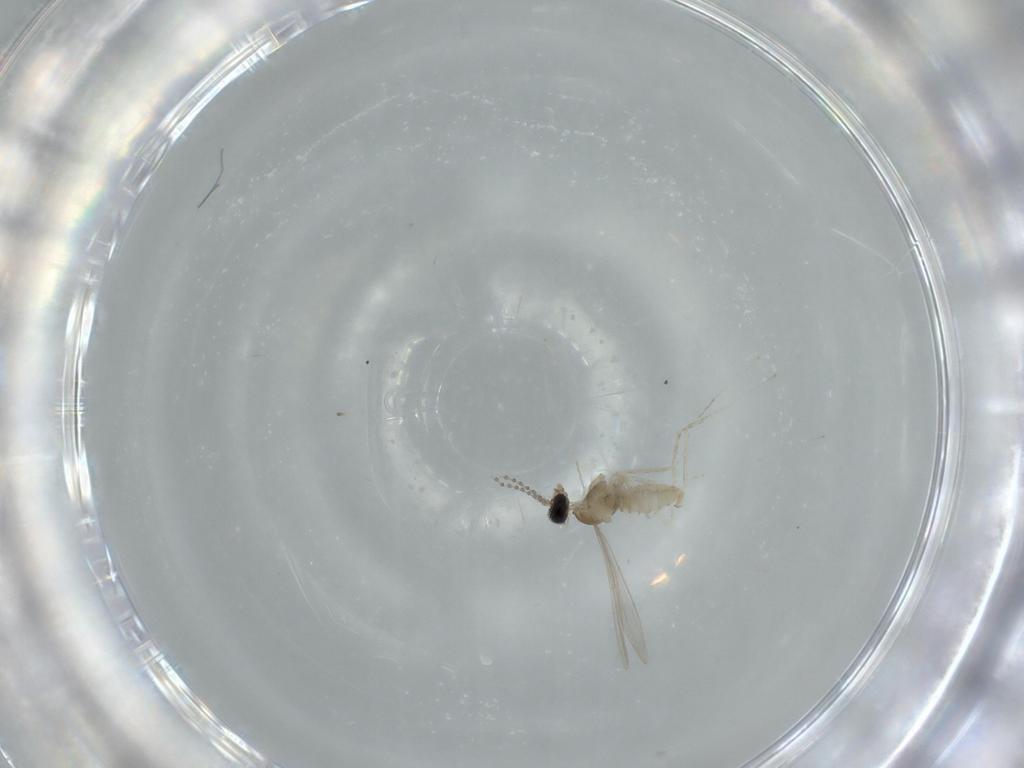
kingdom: Animalia
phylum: Arthropoda
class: Insecta
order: Diptera
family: Cecidomyiidae
